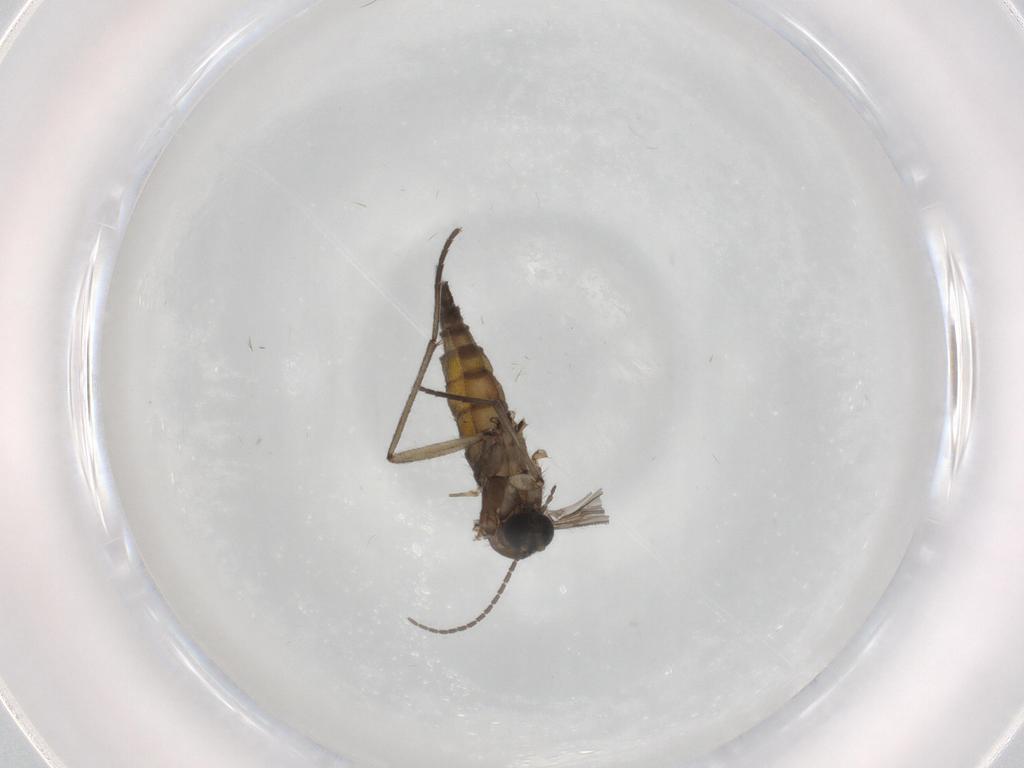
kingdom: Animalia
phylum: Arthropoda
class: Insecta
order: Diptera
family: Sciaridae
